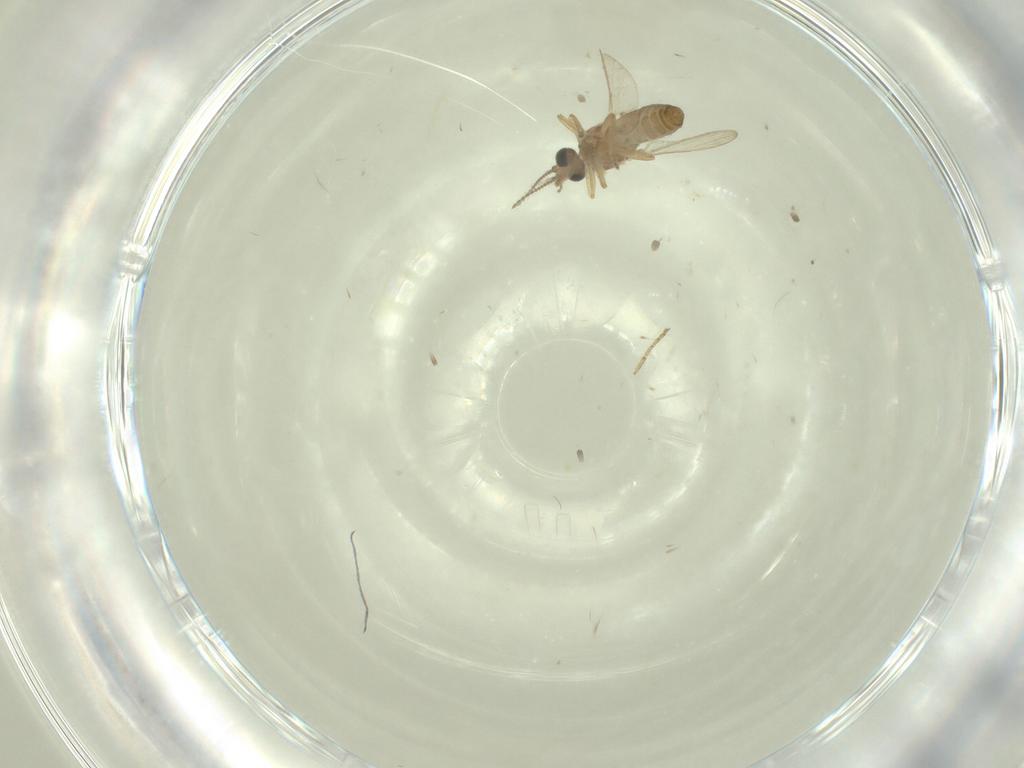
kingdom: Animalia
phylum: Arthropoda
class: Insecta
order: Diptera
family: Ceratopogonidae
